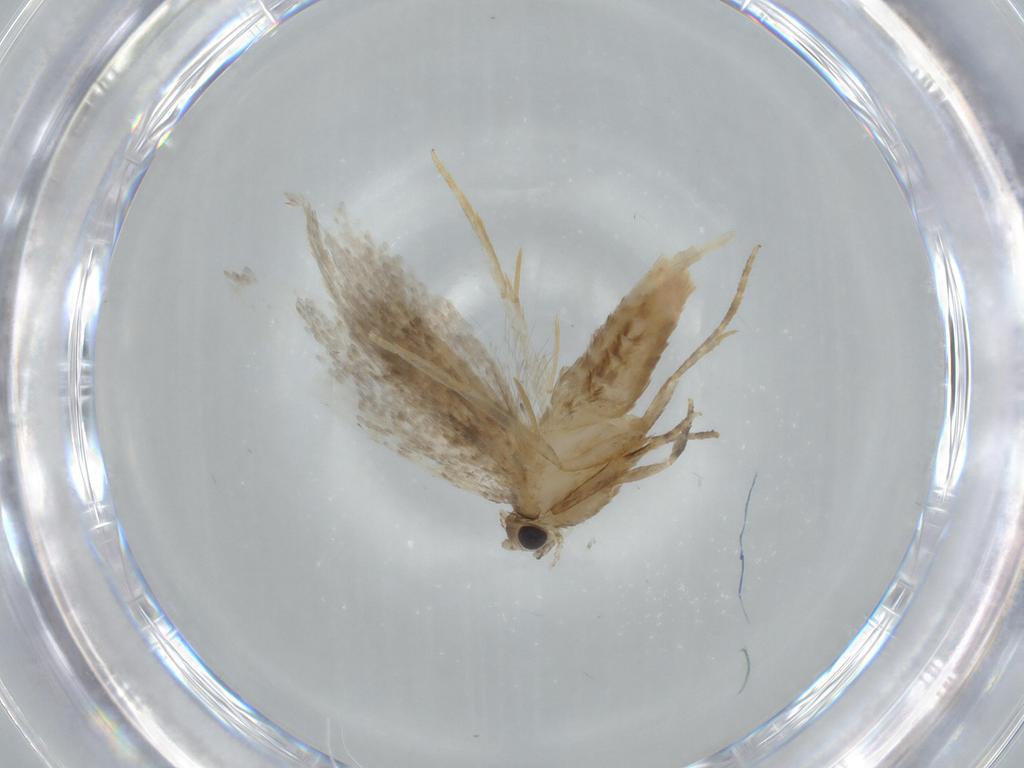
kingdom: Animalia
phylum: Arthropoda
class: Insecta
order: Lepidoptera
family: Tineidae
